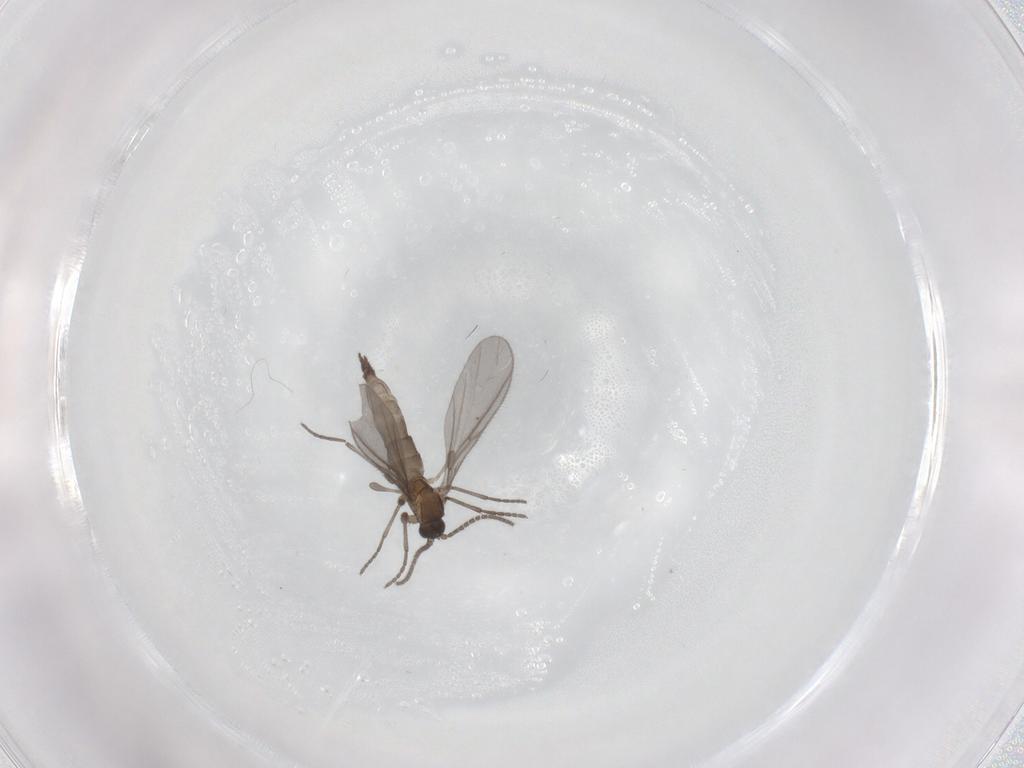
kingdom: Animalia
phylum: Arthropoda
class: Insecta
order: Diptera
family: Sciaridae
